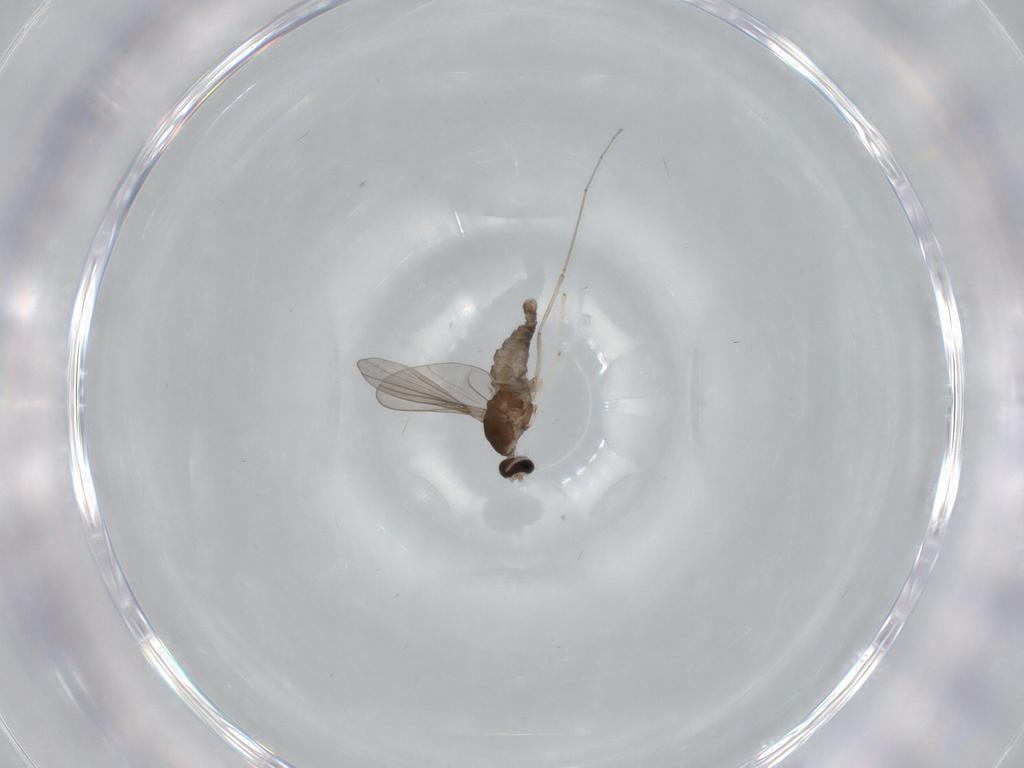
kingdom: Animalia
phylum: Arthropoda
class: Insecta
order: Diptera
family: Cecidomyiidae
